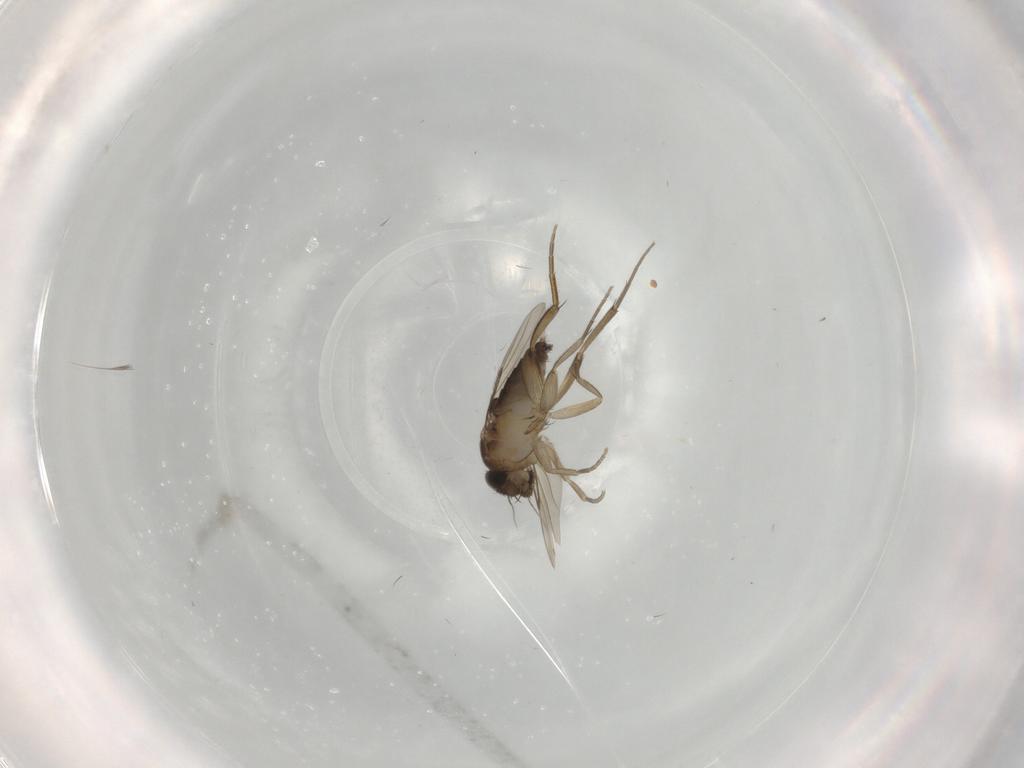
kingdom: Animalia
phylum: Arthropoda
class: Insecta
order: Diptera
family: Phoridae
